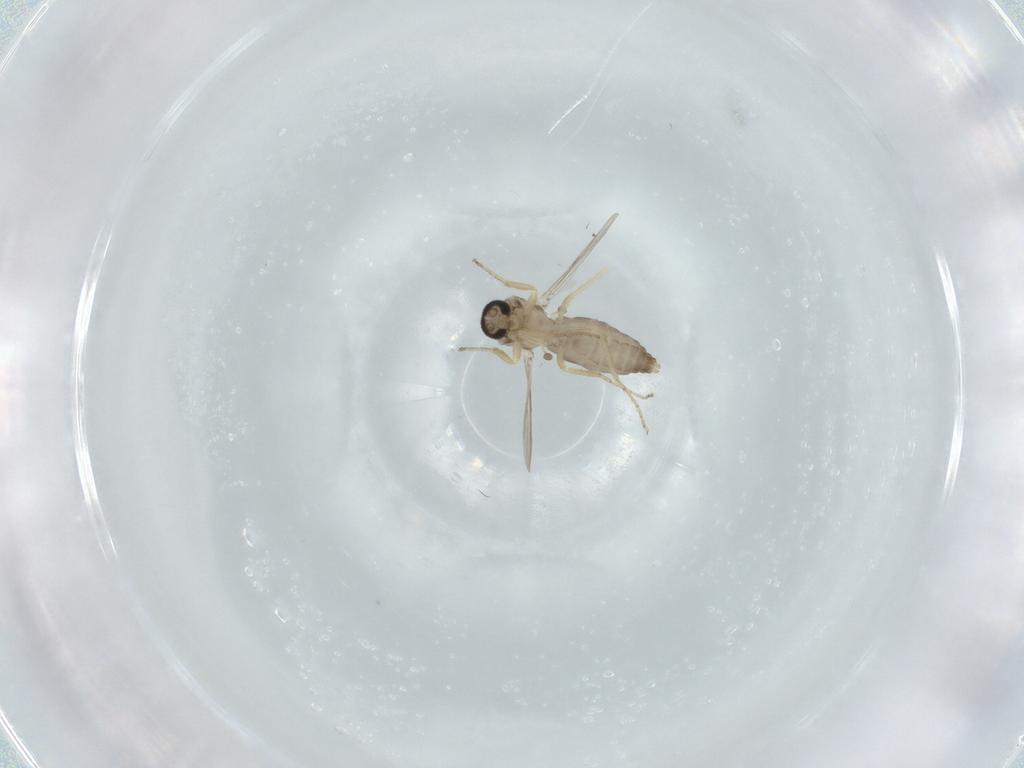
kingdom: Animalia
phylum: Arthropoda
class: Insecta
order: Diptera
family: Ceratopogonidae
